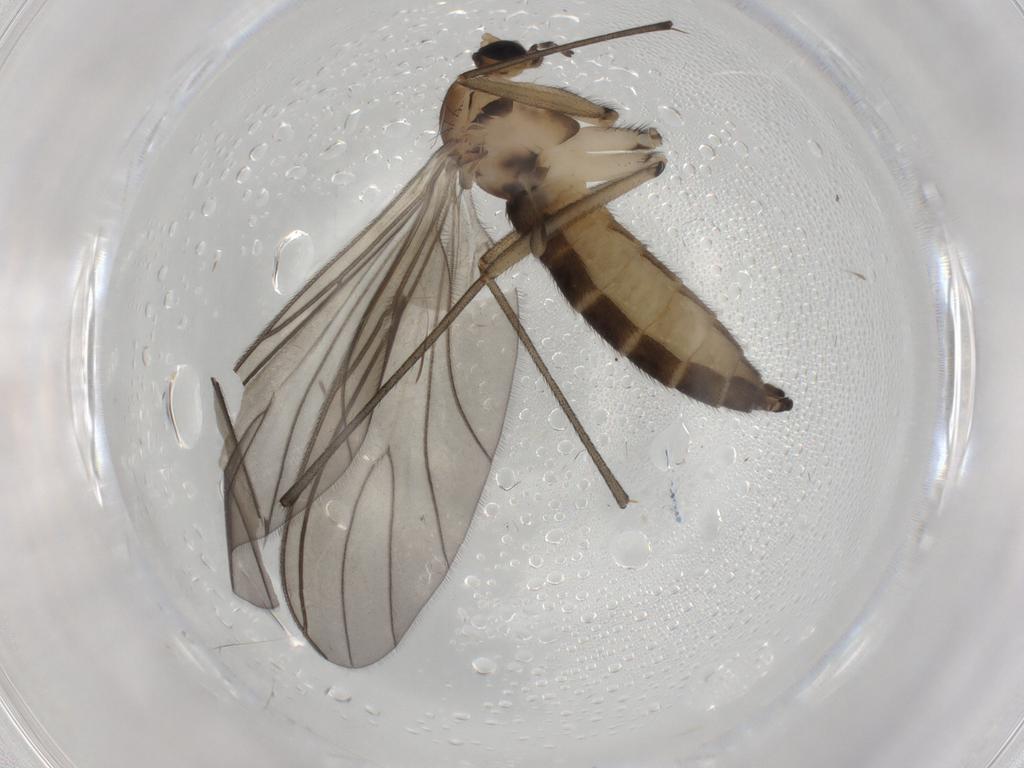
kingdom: Animalia
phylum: Arthropoda
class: Insecta
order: Diptera
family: Sciaridae
